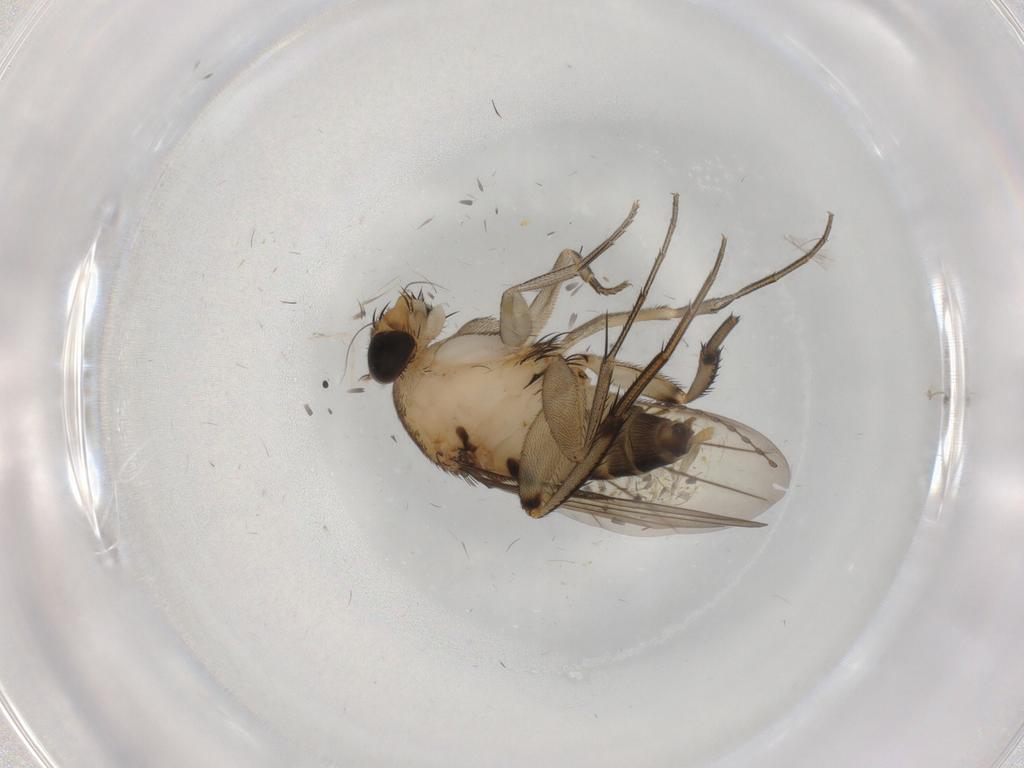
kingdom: Animalia
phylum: Arthropoda
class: Insecta
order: Diptera
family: Phoridae
